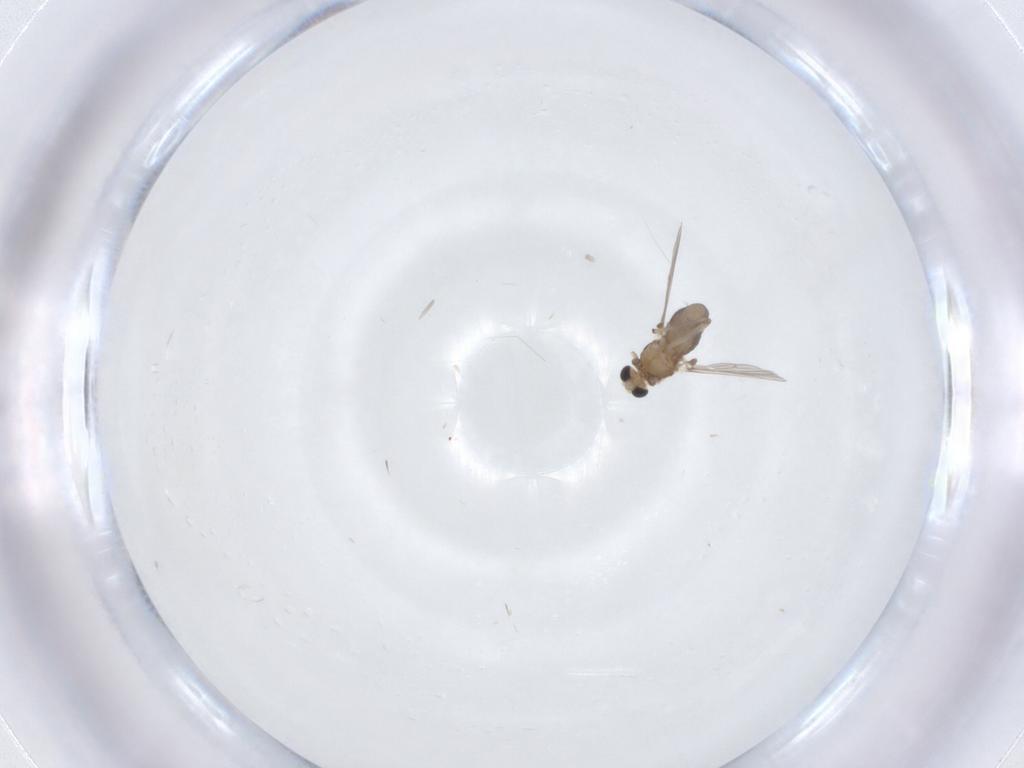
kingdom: Animalia
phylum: Arthropoda
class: Insecta
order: Diptera
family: Chironomidae
